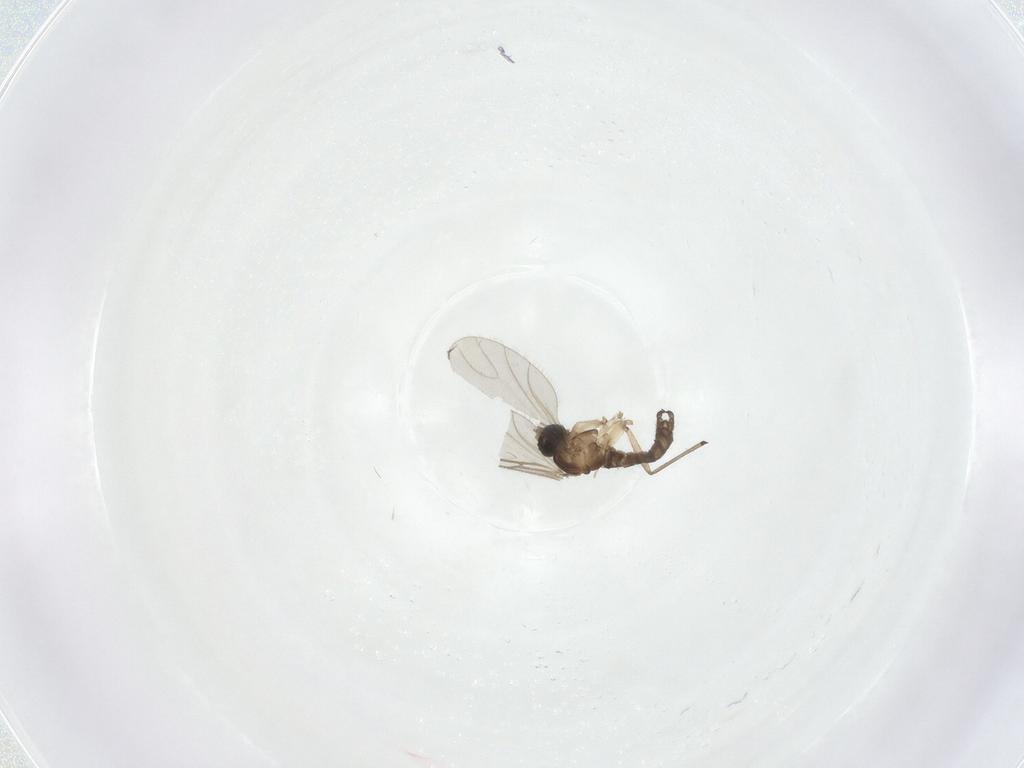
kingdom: Animalia
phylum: Arthropoda
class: Insecta
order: Diptera
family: Sciaridae
